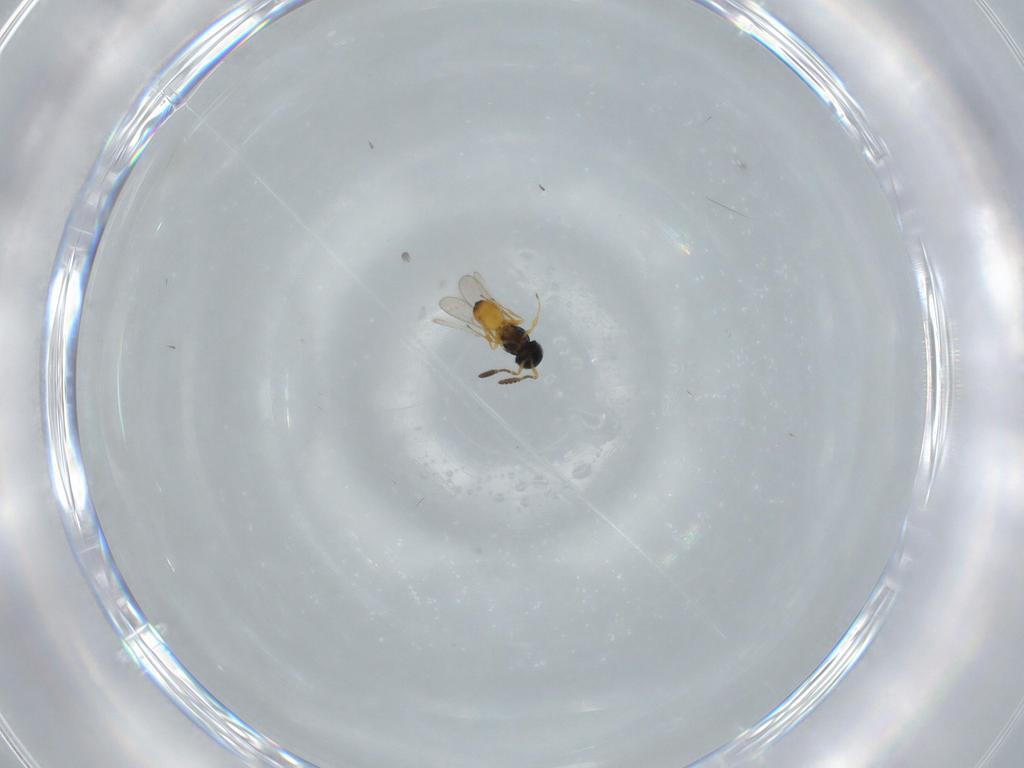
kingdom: Animalia
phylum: Arthropoda
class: Insecta
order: Hymenoptera
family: Scelionidae
